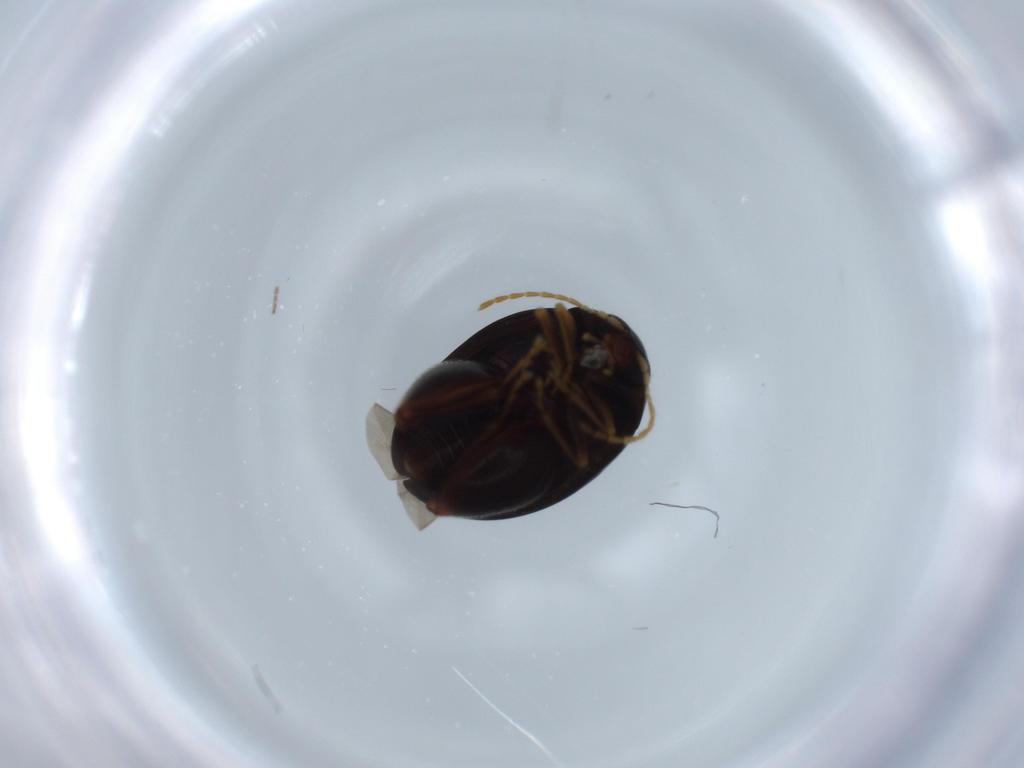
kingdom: Animalia
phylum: Arthropoda
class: Insecta
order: Coleoptera
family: Chrysomelidae
